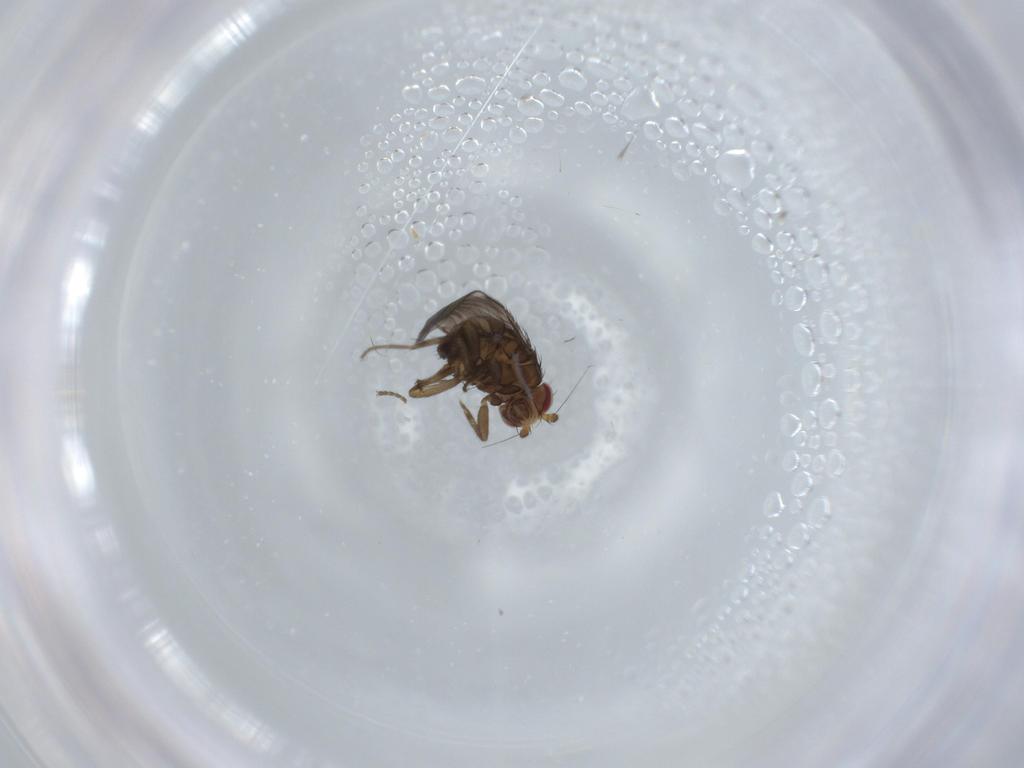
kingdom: Animalia
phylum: Arthropoda
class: Insecta
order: Diptera
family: Sphaeroceridae
